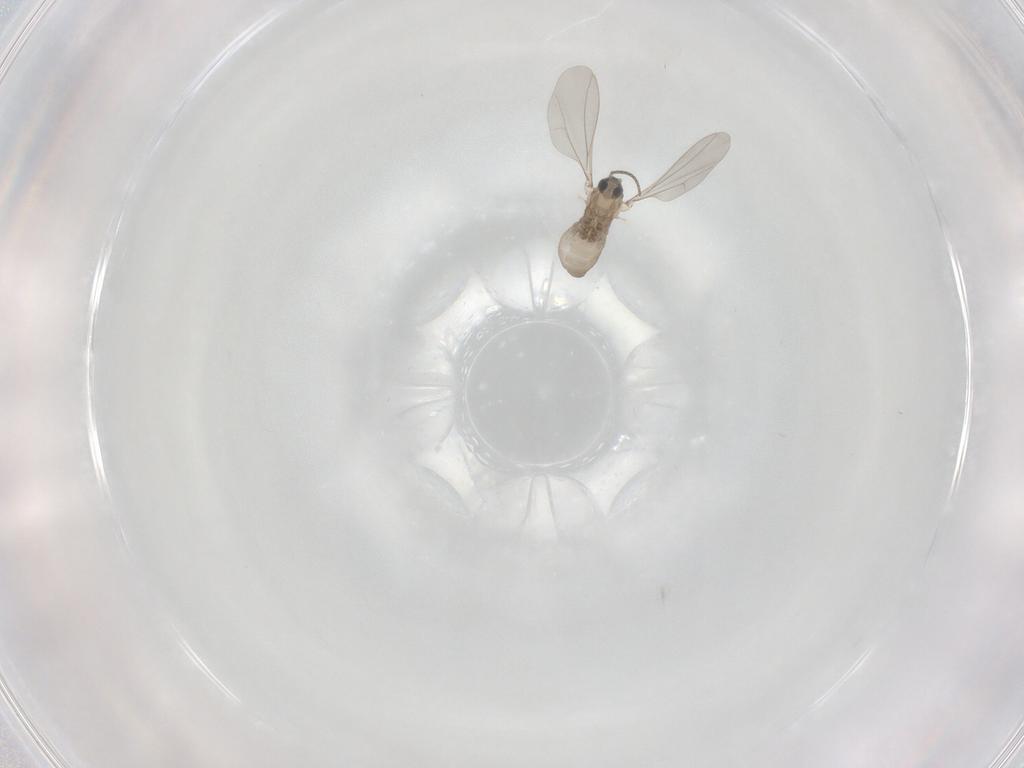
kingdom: Animalia
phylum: Arthropoda
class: Insecta
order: Diptera
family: Cecidomyiidae
